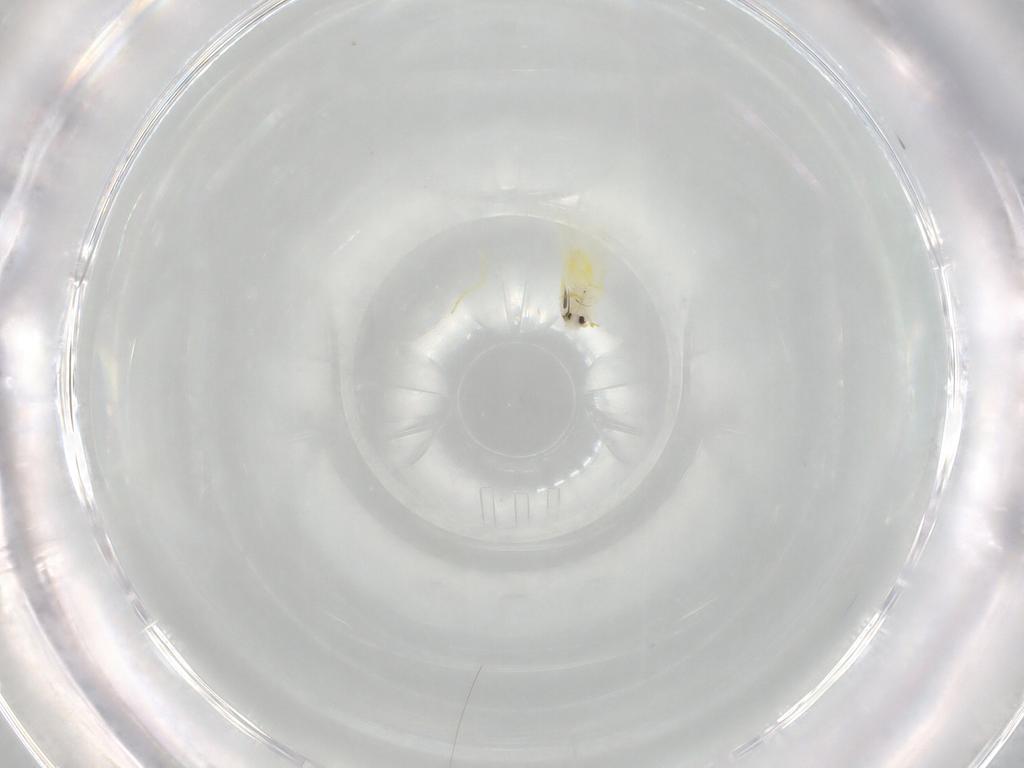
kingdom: Animalia
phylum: Arthropoda
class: Insecta
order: Hemiptera
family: Aleyrodidae
